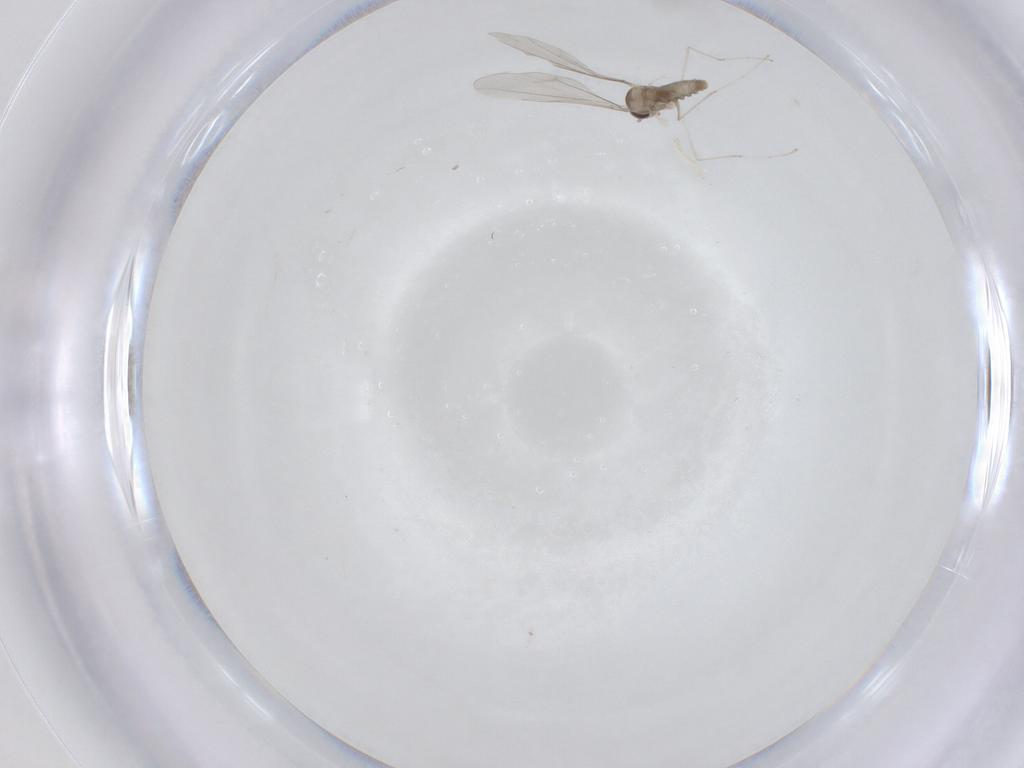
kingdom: Animalia
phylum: Arthropoda
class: Insecta
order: Diptera
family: Cecidomyiidae
